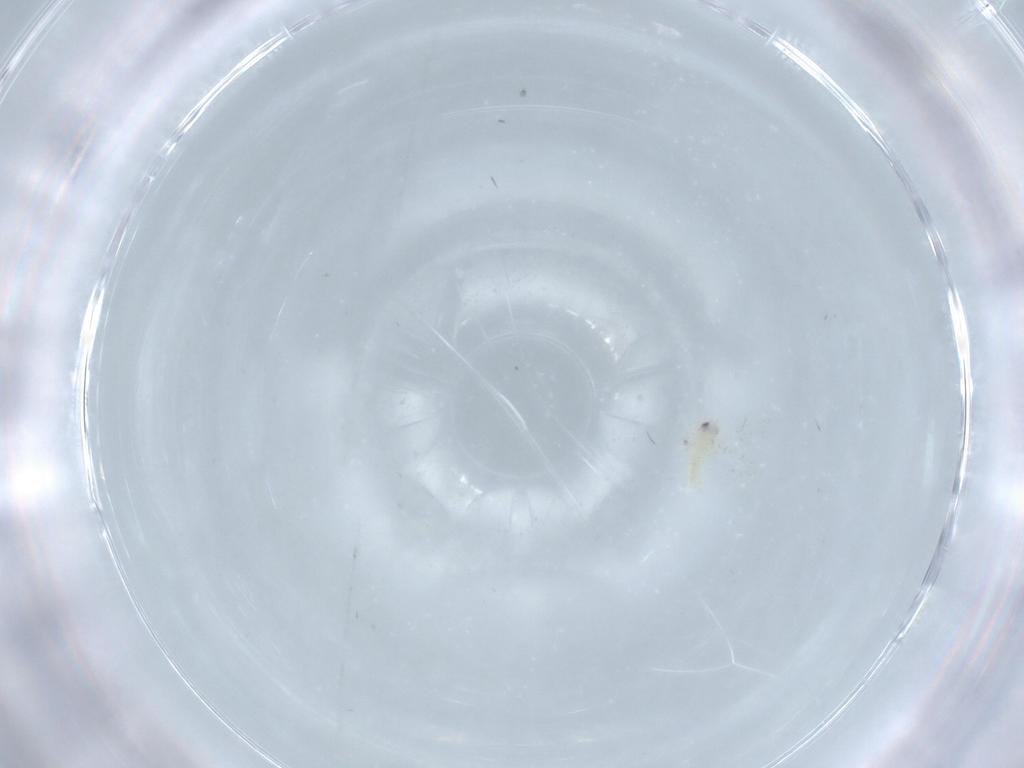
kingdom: Animalia
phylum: Arthropoda
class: Insecta
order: Hemiptera
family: Aleyrodidae
